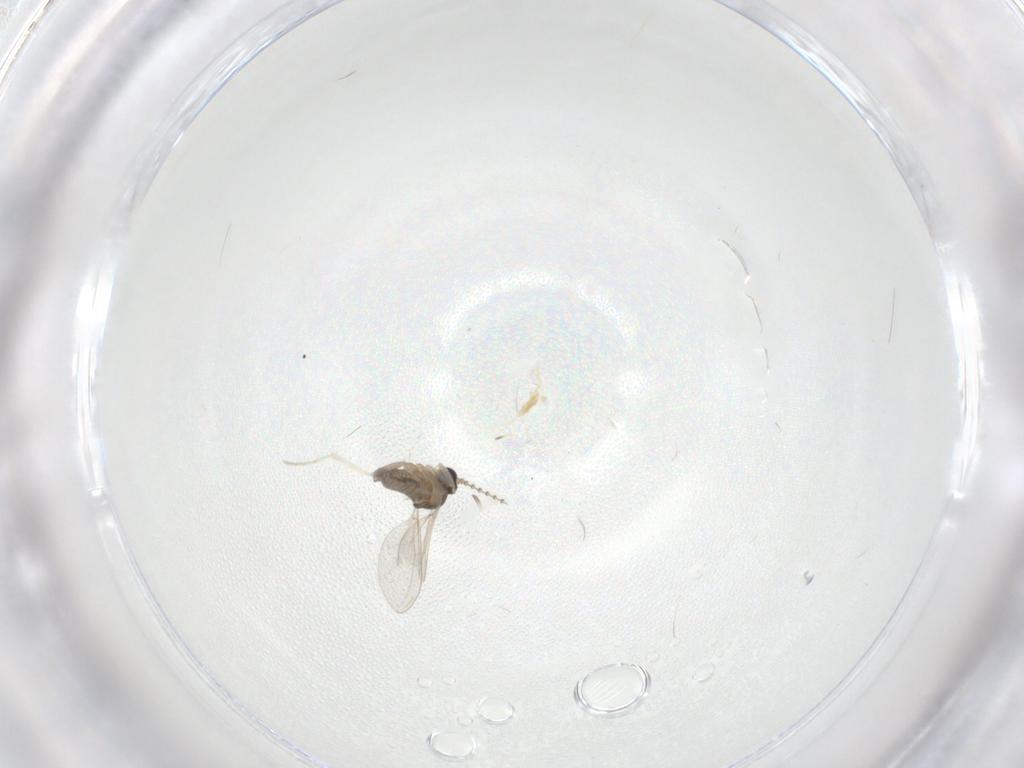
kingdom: Animalia
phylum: Arthropoda
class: Insecta
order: Diptera
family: Cecidomyiidae
